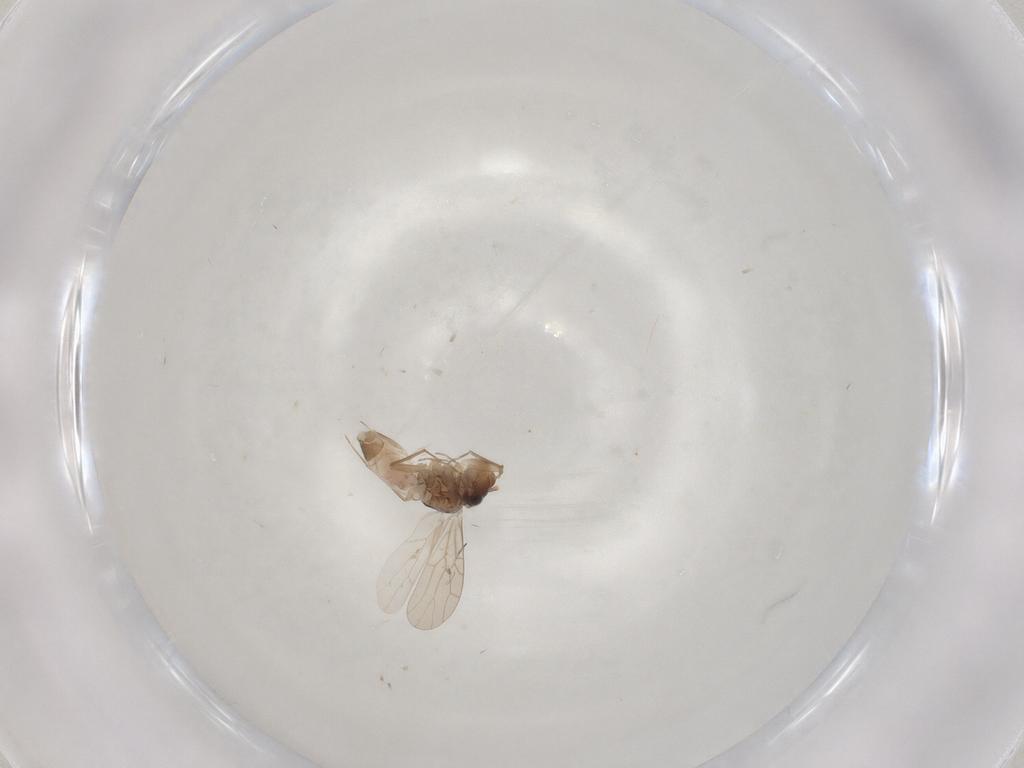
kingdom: Animalia
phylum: Arthropoda
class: Insecta
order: Psocodea
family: Lepidopsocidae
